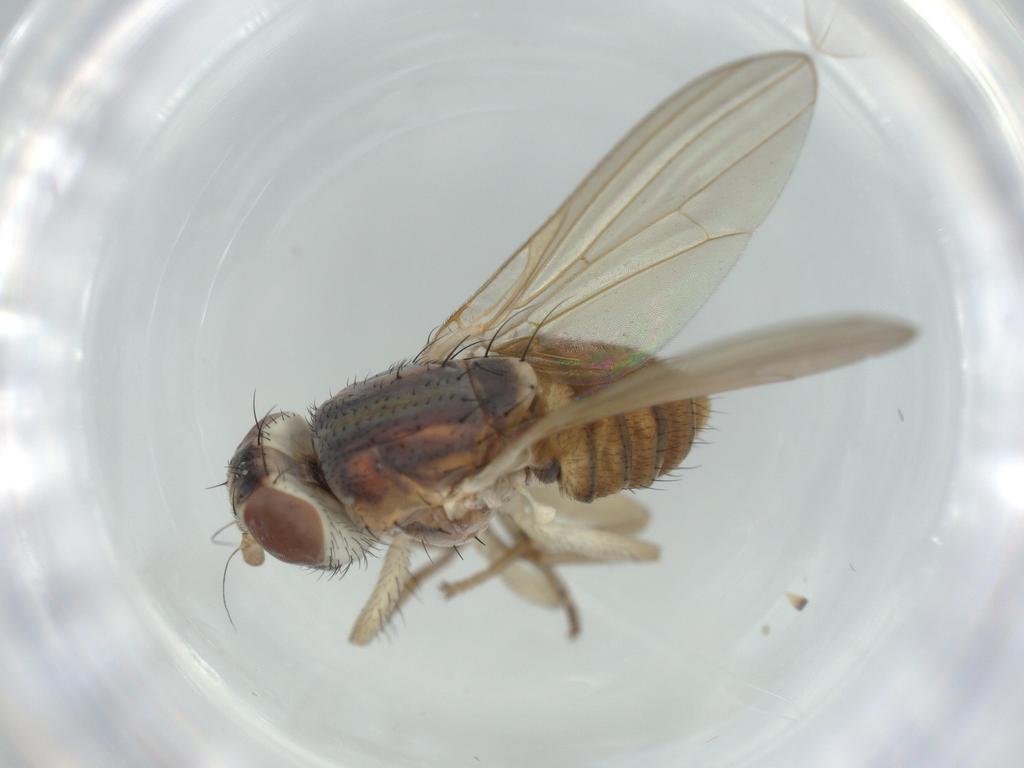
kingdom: Animalia
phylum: Arthropoda
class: Insecta
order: Diptera
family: Lauxaniidae
